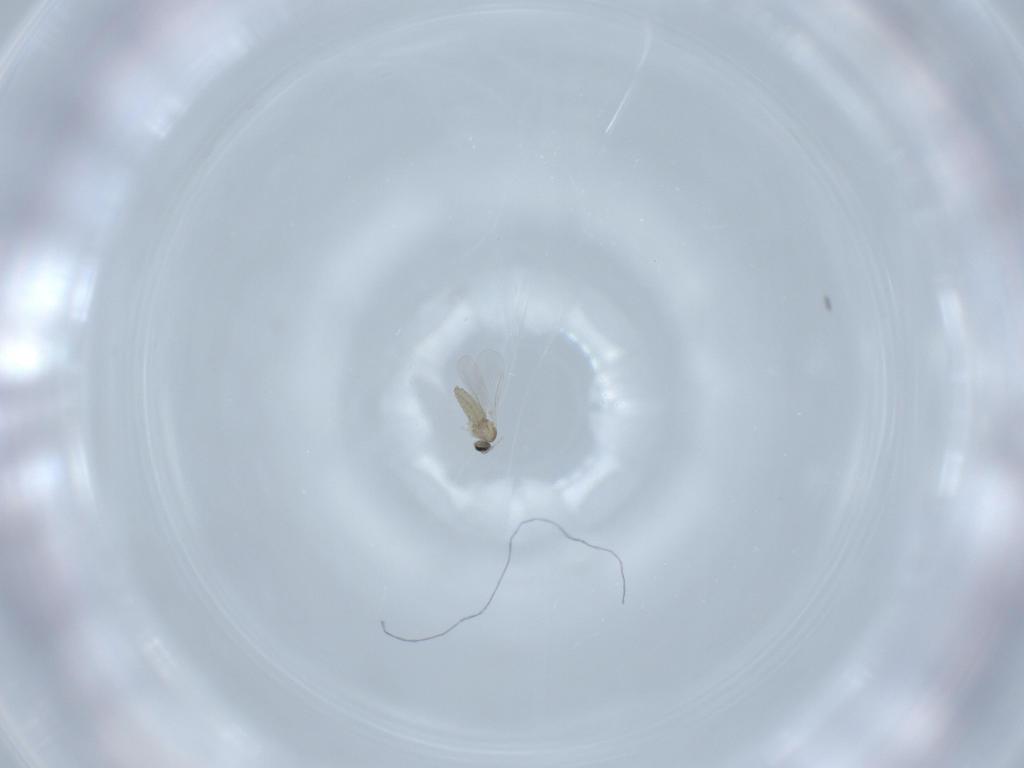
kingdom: Animalia
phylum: Arthropoda
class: Insecta
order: Diptera
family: Cecidomyiidae
